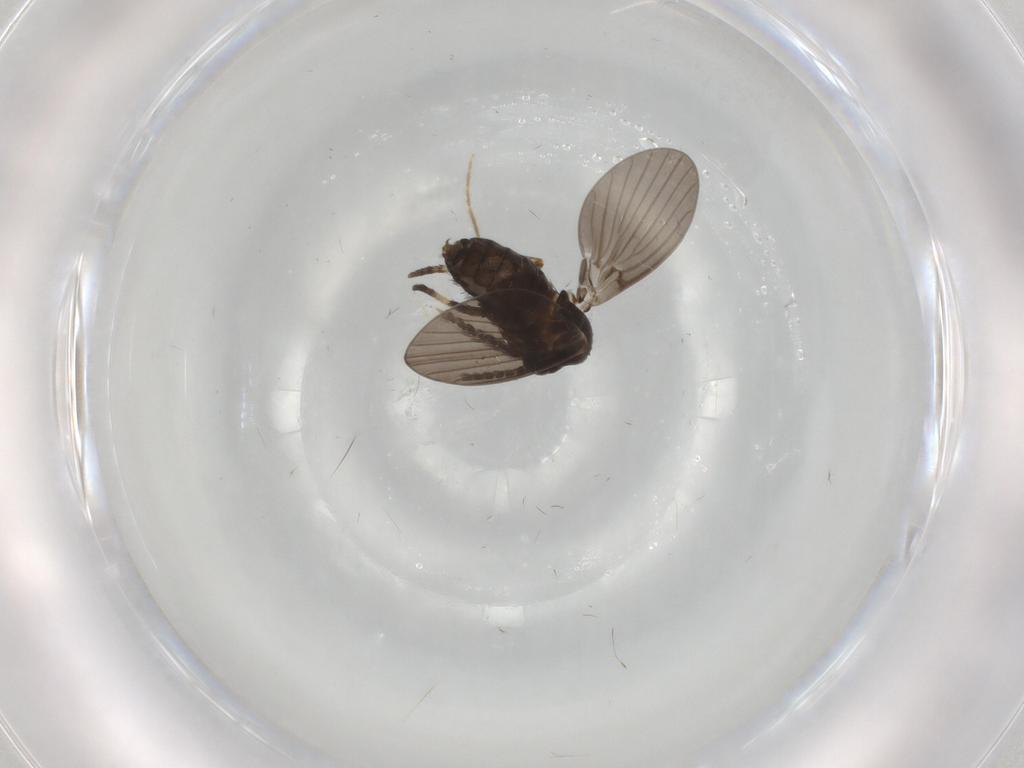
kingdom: Animalia
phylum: Arthropoda
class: Insecta
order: Diptera
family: Psychodidae
